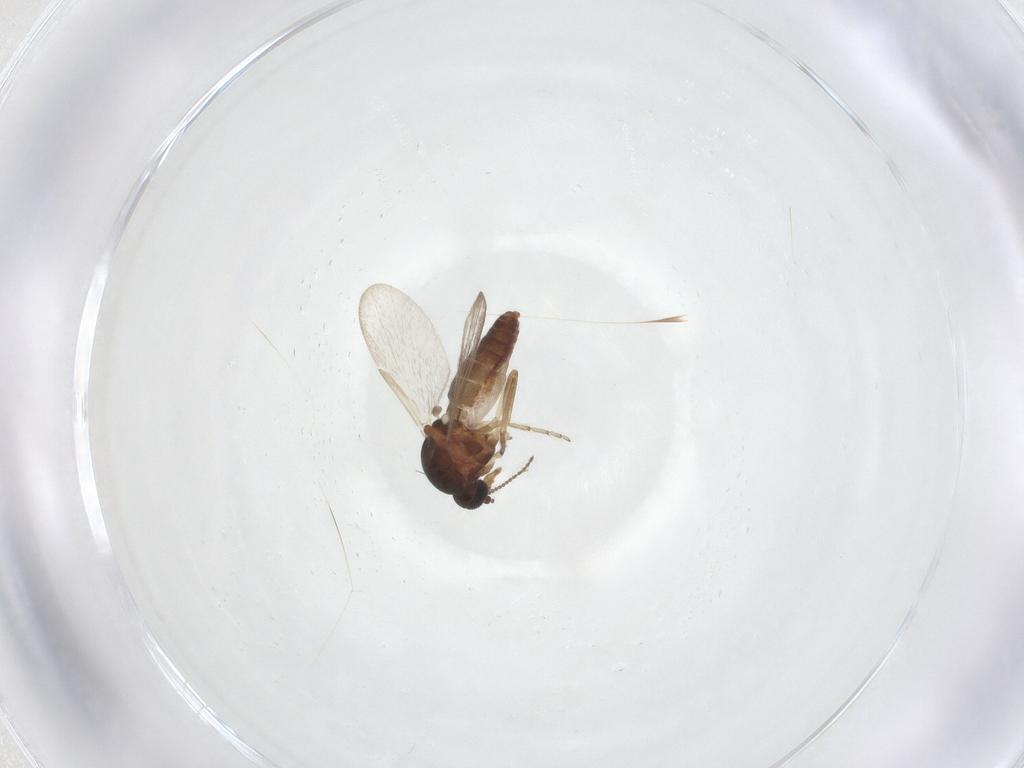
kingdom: Animalia
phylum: Arthropoda
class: Insecta
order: Diptera
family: Ceratopogonidae
